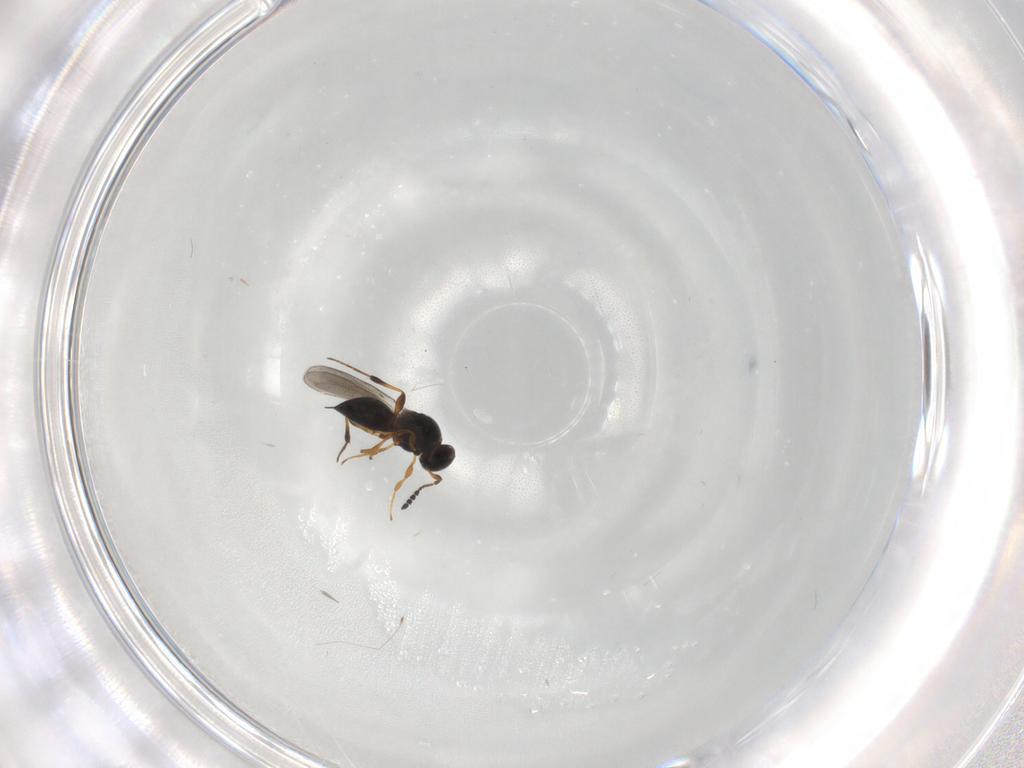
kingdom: Animalia
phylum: Arthropoda
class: Insecta
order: Hymenoptera
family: Platygastridae
